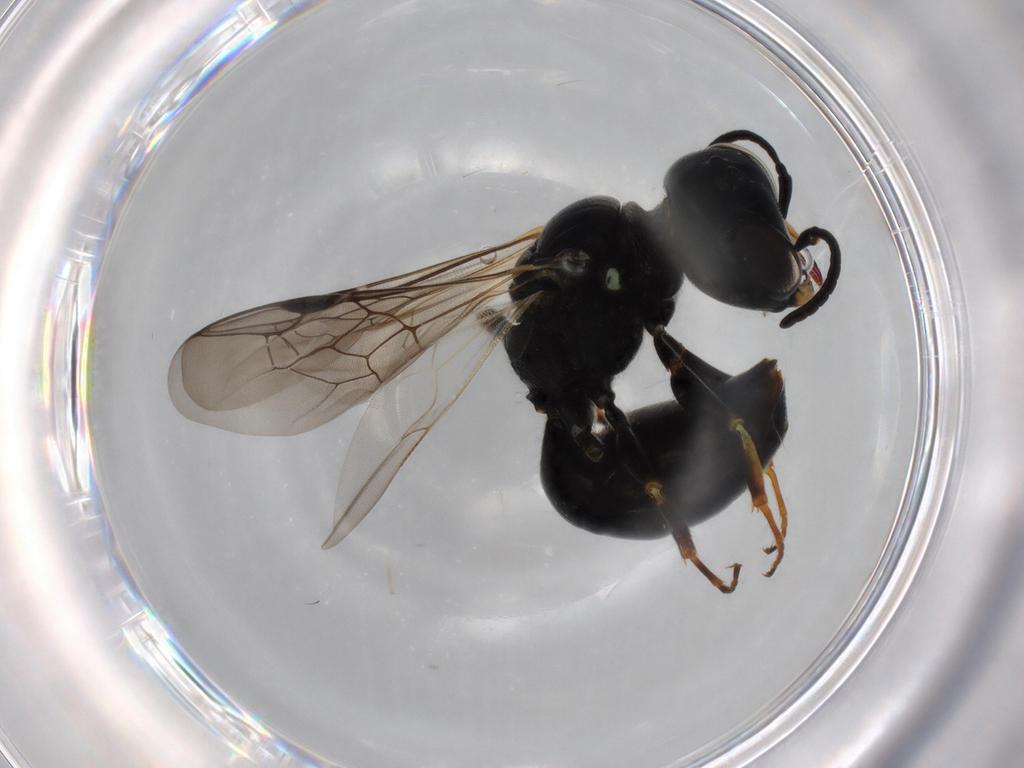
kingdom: Animalia
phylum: Arthropoda
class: Insecta
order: Hymenoptera
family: Crabronidae
